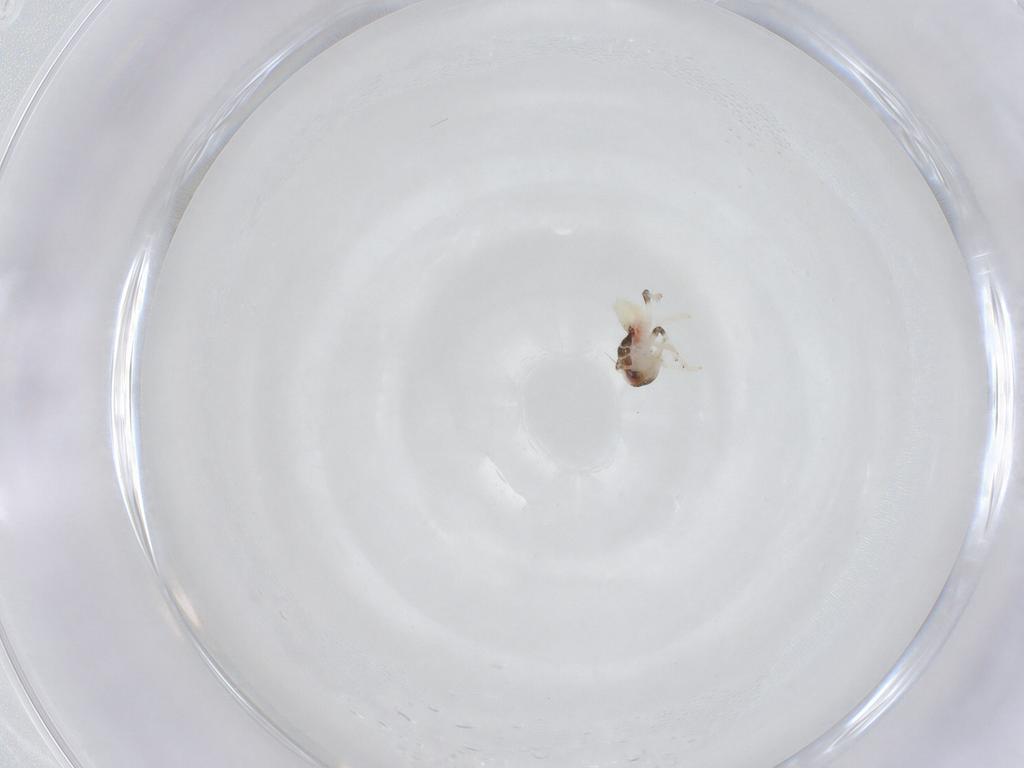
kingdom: Animalia
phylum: Arthropoda
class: Insecta
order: Hemiptera
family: Nogodinidae
